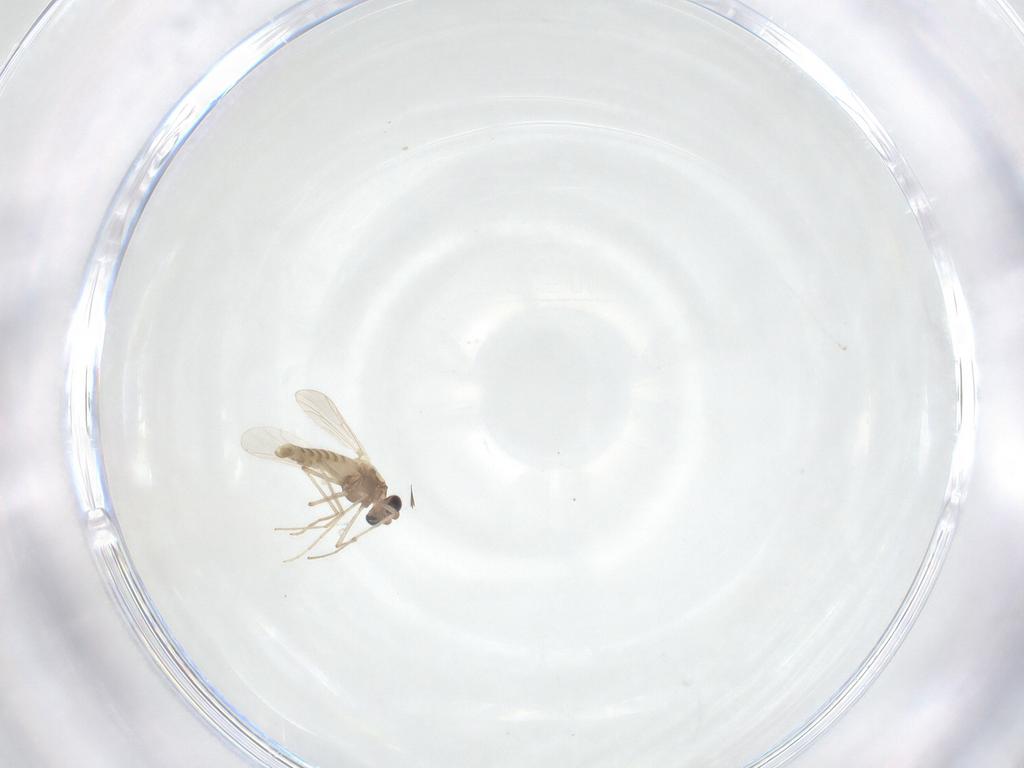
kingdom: Animalia
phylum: Arthropoda
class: Insecta
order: Diptera
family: Chironomidae
